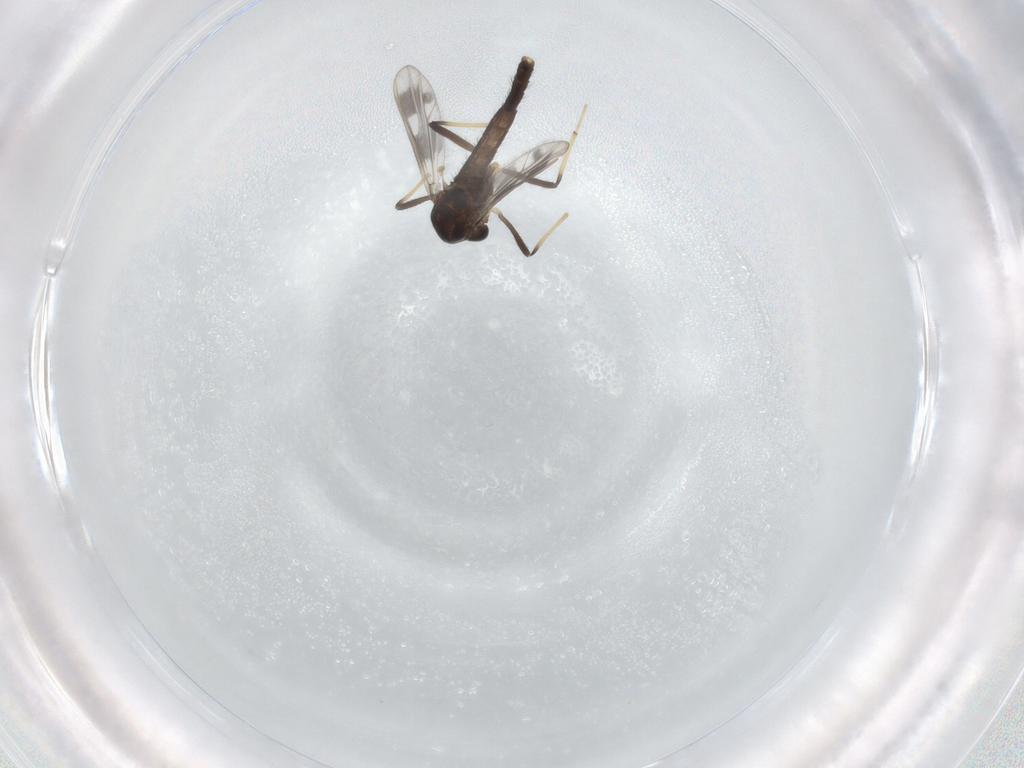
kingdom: Animalia
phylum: Arthropoda
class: Insecta
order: Diptera
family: Chironomidae
